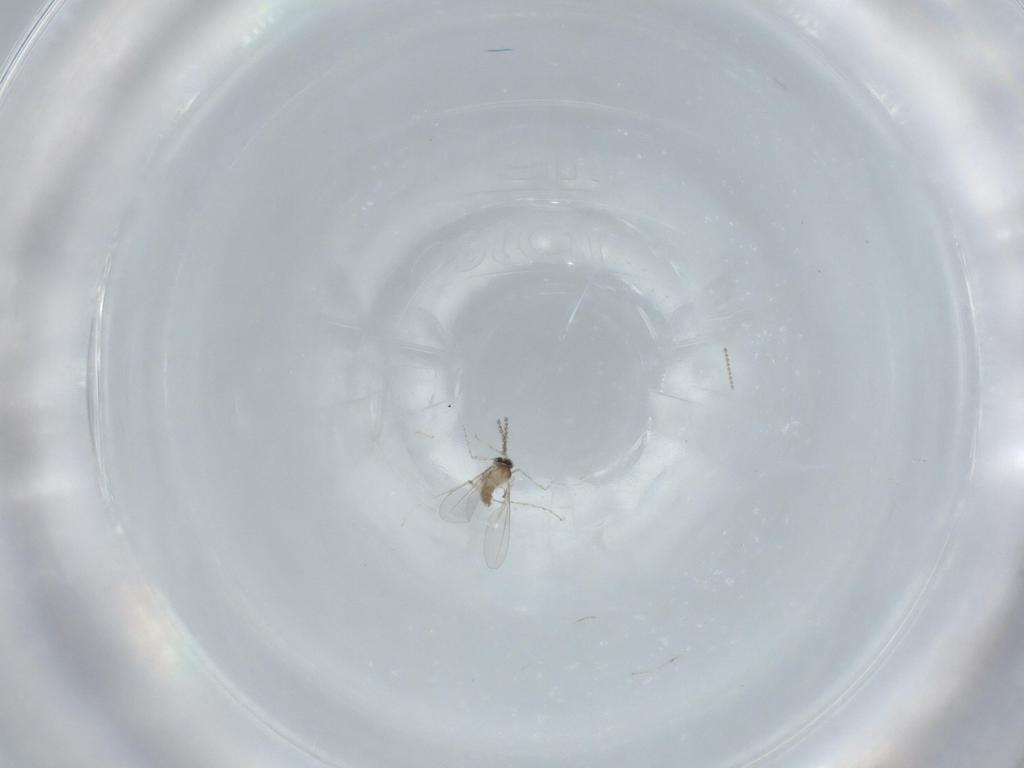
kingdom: Animalia
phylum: Arthropoda
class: Insecta
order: Diptera
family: Cecidomyiidae
